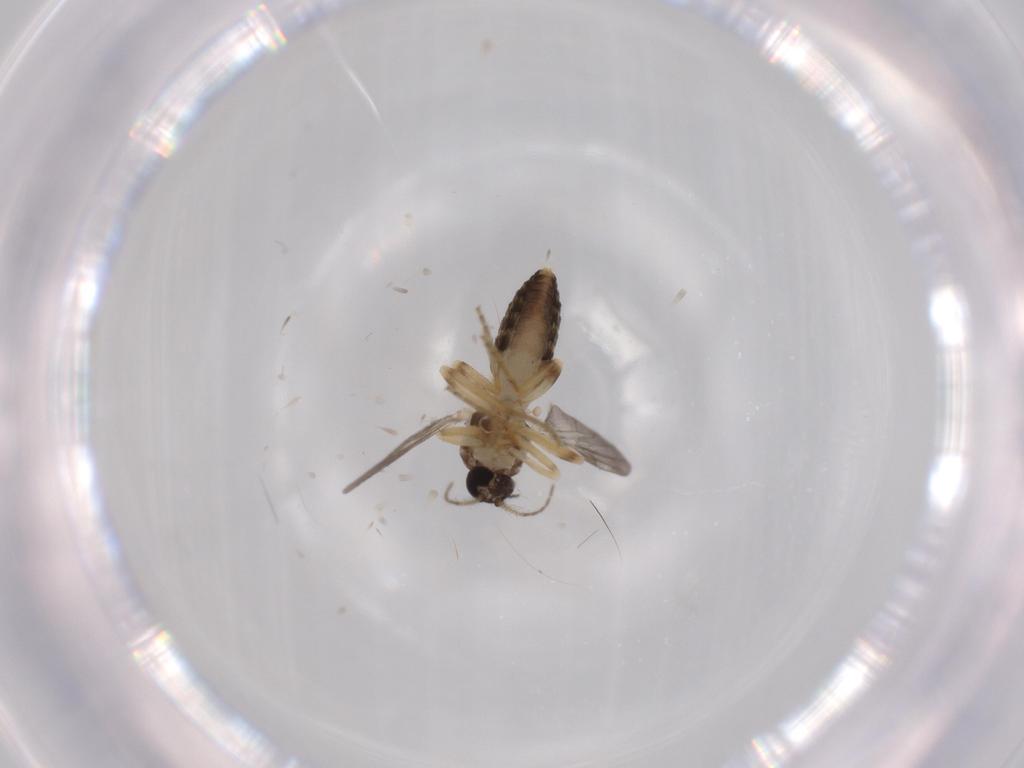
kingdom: Animalia
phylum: Arthropoda
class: Insecta
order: Diptera
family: Ceratopogonidae
